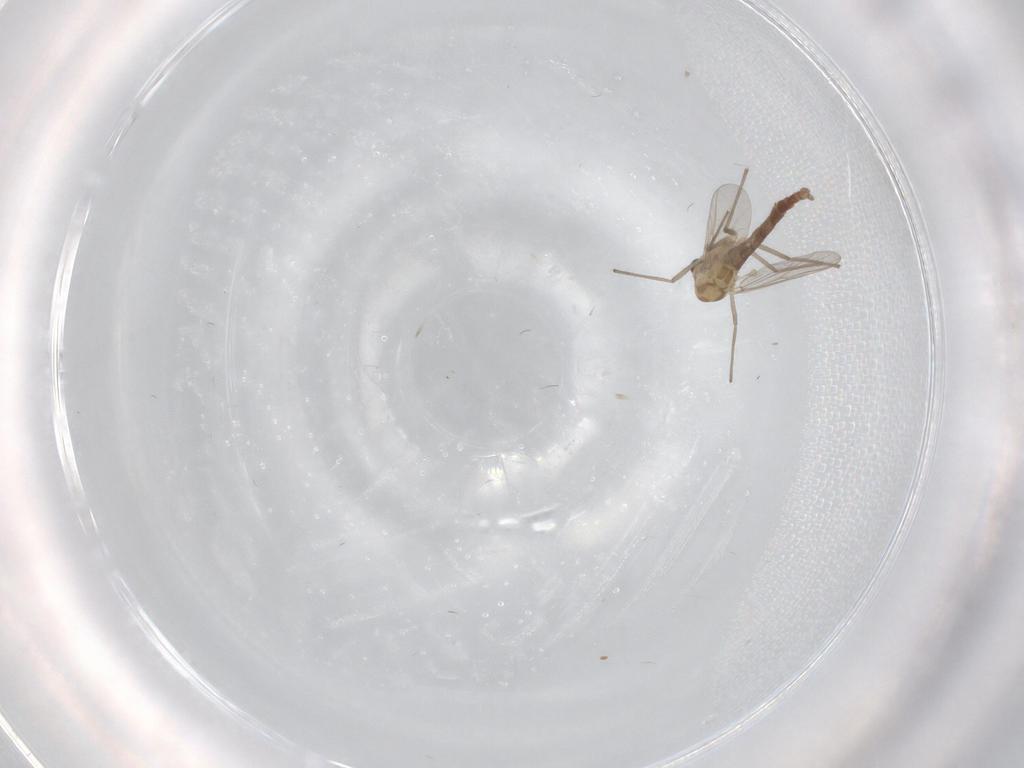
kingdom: Animalia
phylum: Arthropoda
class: Insecta
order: Diptera
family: Chironomidae
